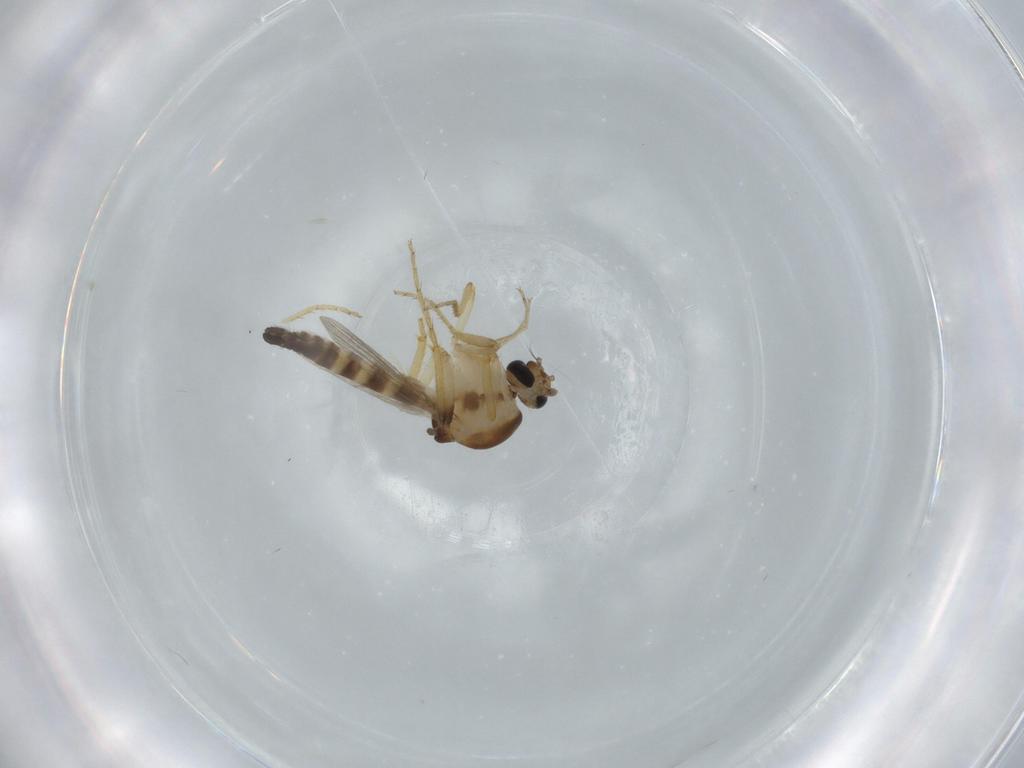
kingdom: Animalia
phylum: Arthropoda
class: Insecta
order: Diptera
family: Ceratopogonidae
